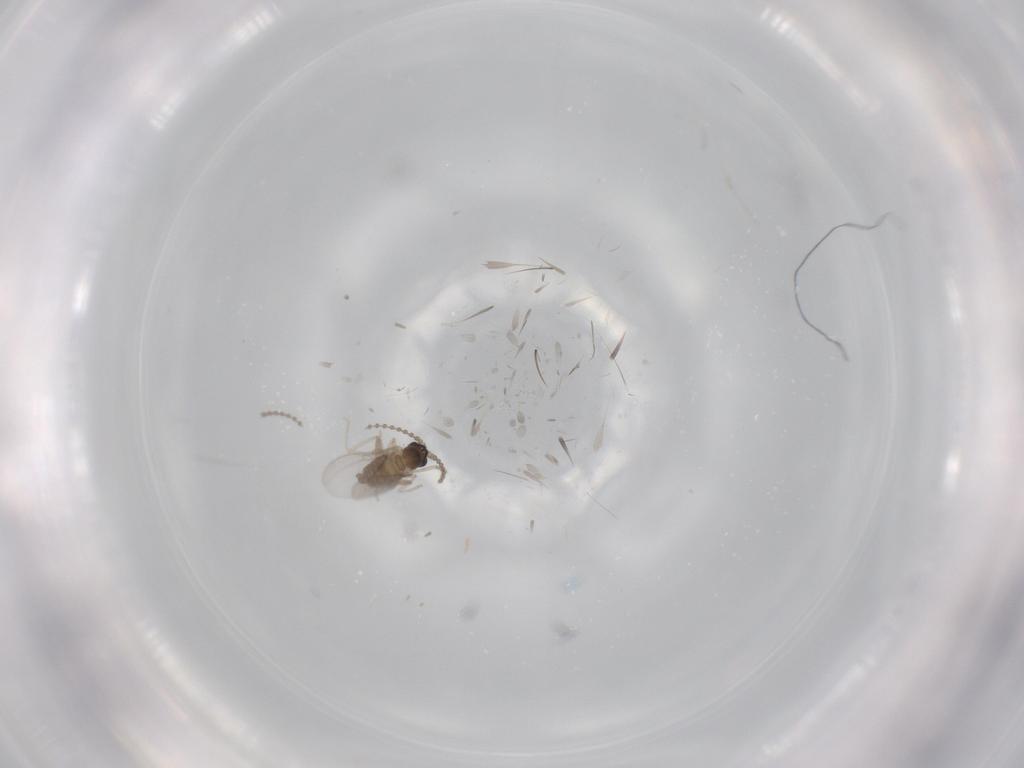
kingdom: Animalia
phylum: Arthropoda
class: Insecta
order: Diptera
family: Cecidomyiidae
